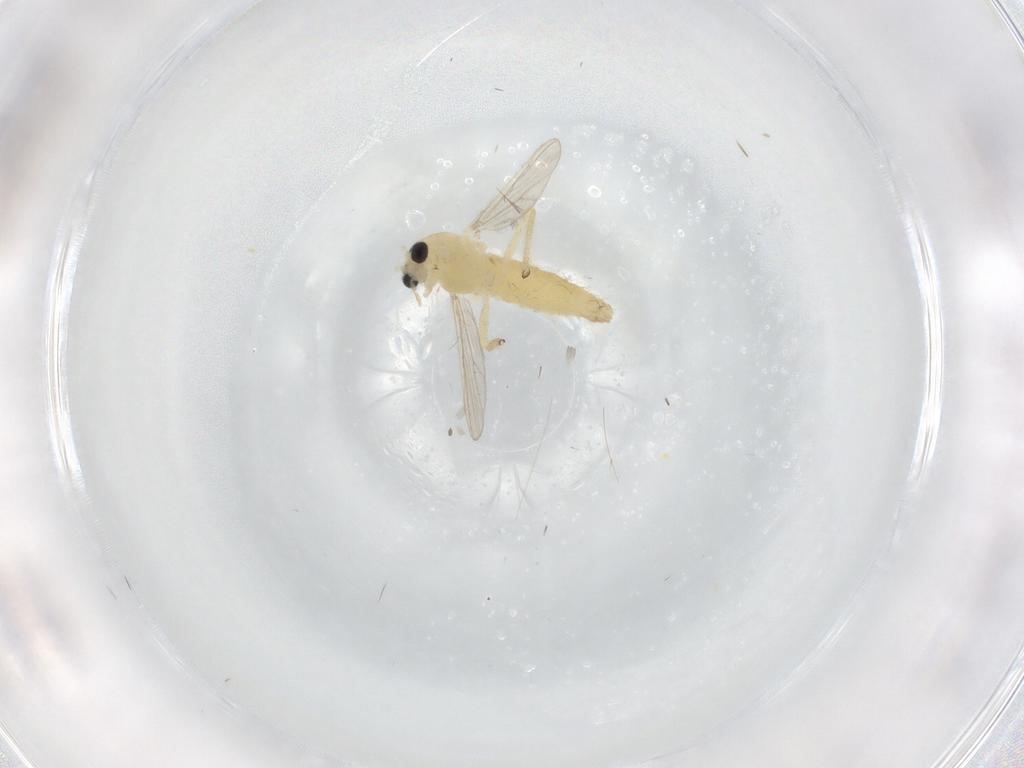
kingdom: Animalia
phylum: Arthropoda
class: Insecta
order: Diptera
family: Chironomidae
